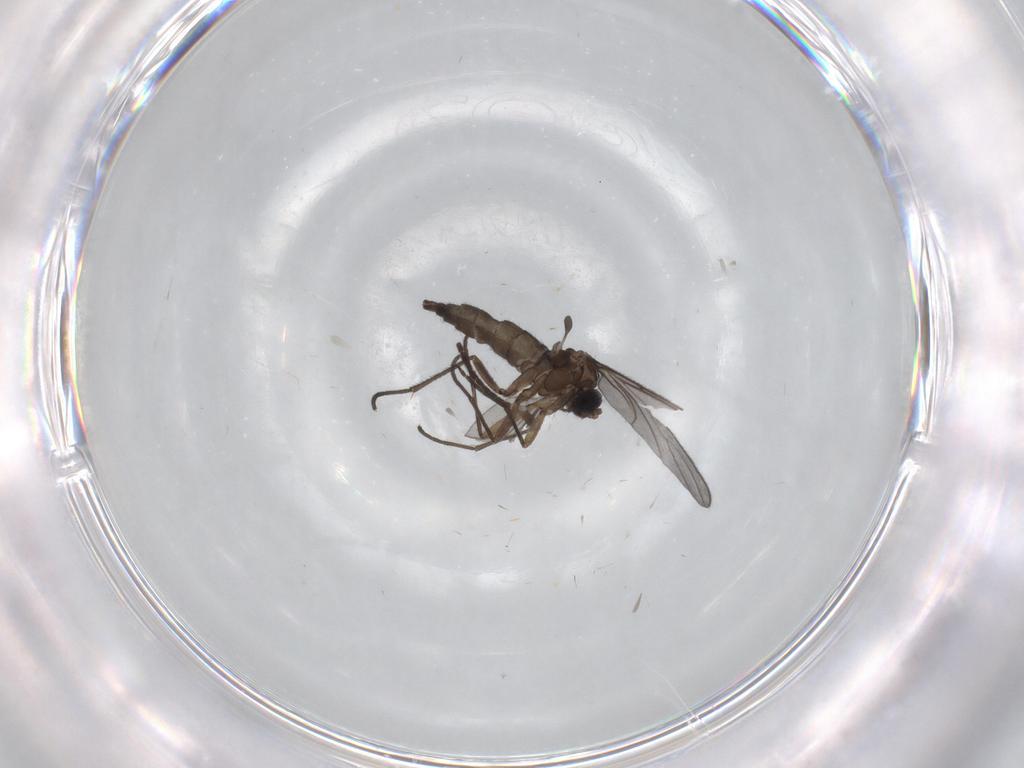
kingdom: Animalia
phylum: Arthropoda
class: Insecta
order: Diptera
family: Sciaridae
